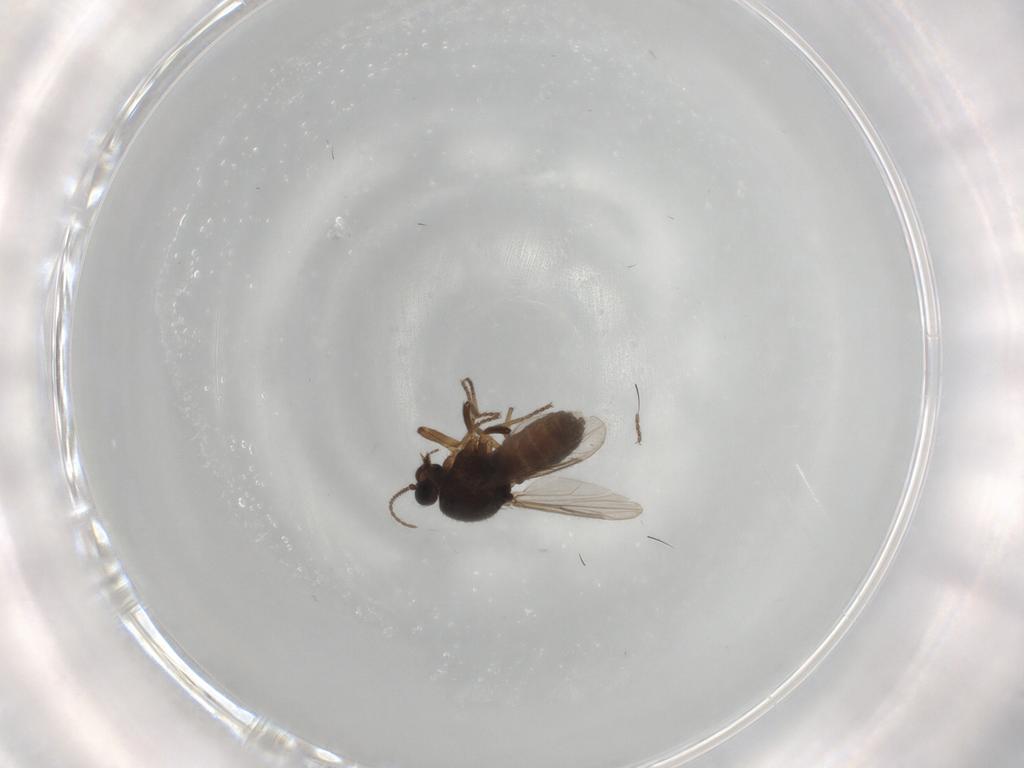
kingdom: Animalia
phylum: Arthropoda
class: Insecta
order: Diptera
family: Ceratopogonidae
